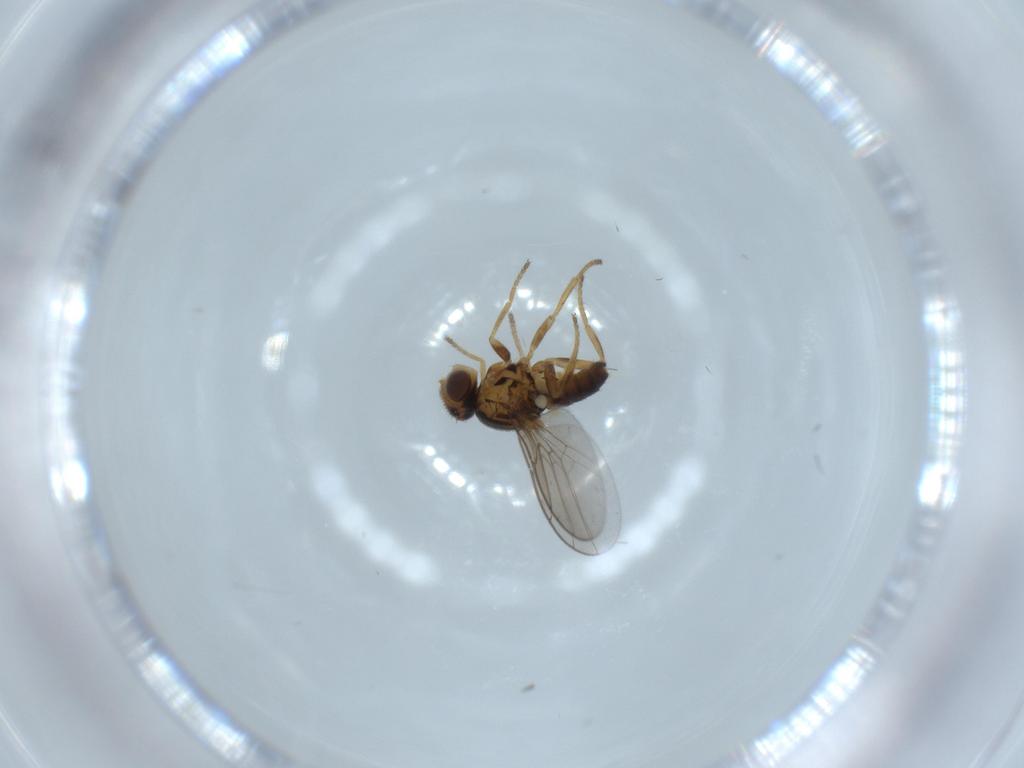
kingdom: Animalia
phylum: Arthropoda
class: Insecta
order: Diptera
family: Chloropidae
